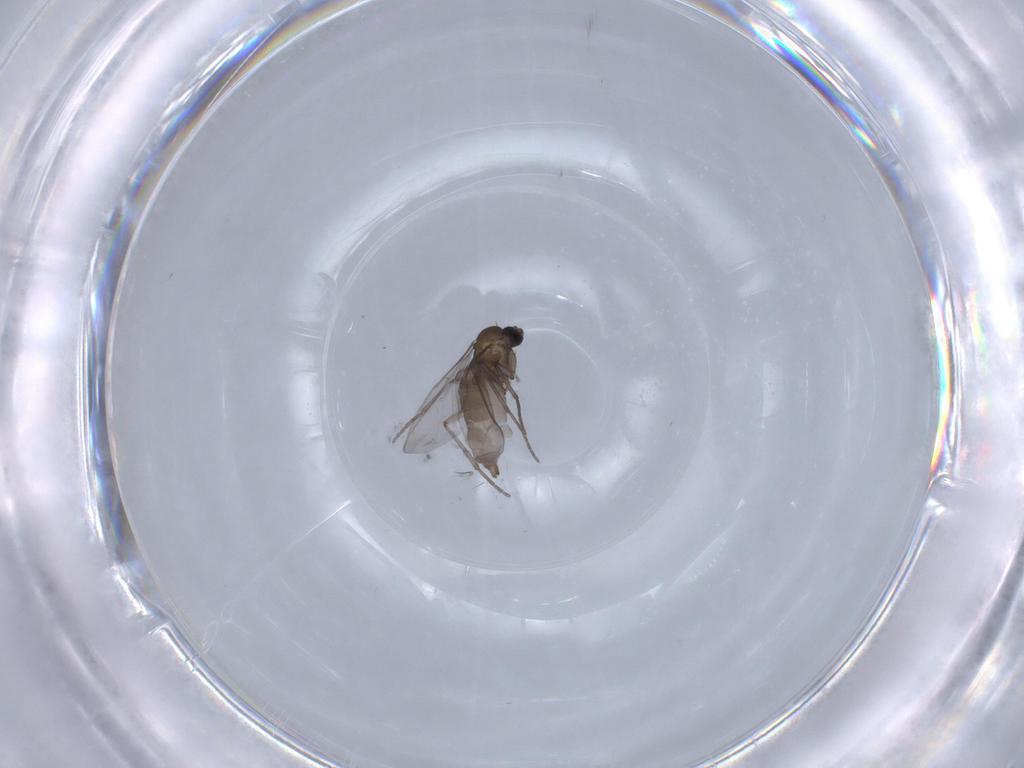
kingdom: Animalia
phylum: Arthropoda
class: Insecta
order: Diptera
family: Sciaridae
